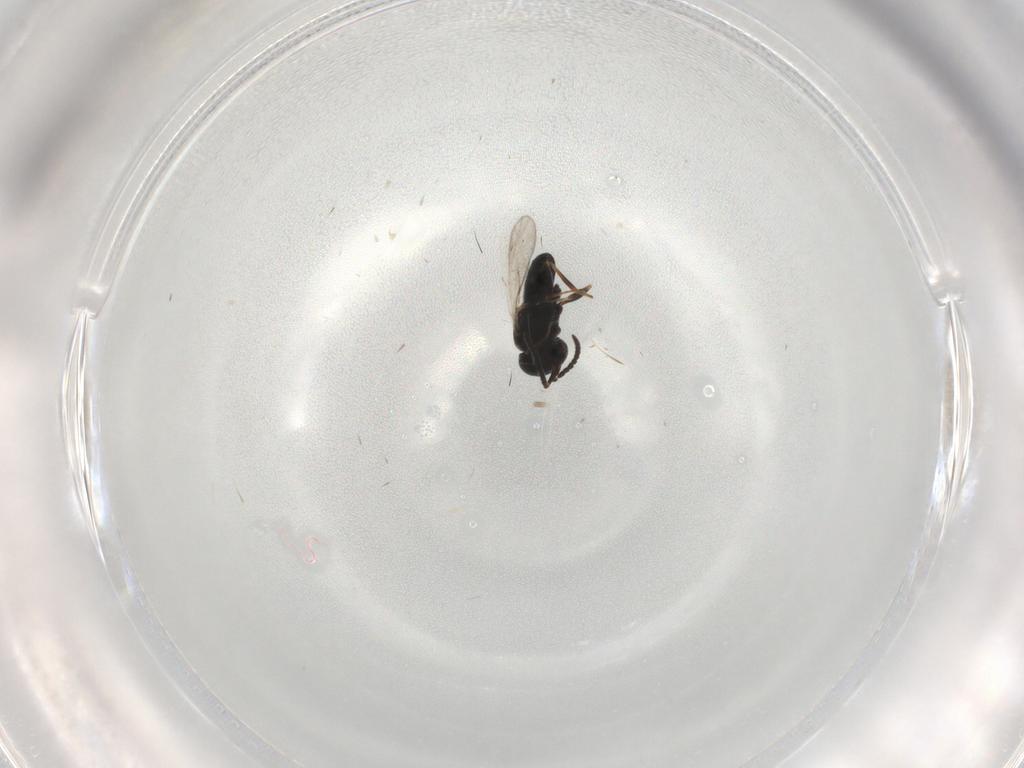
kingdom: Animalia
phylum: Arthropoda
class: Insecta
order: Hymenoptera
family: Scelionidae
